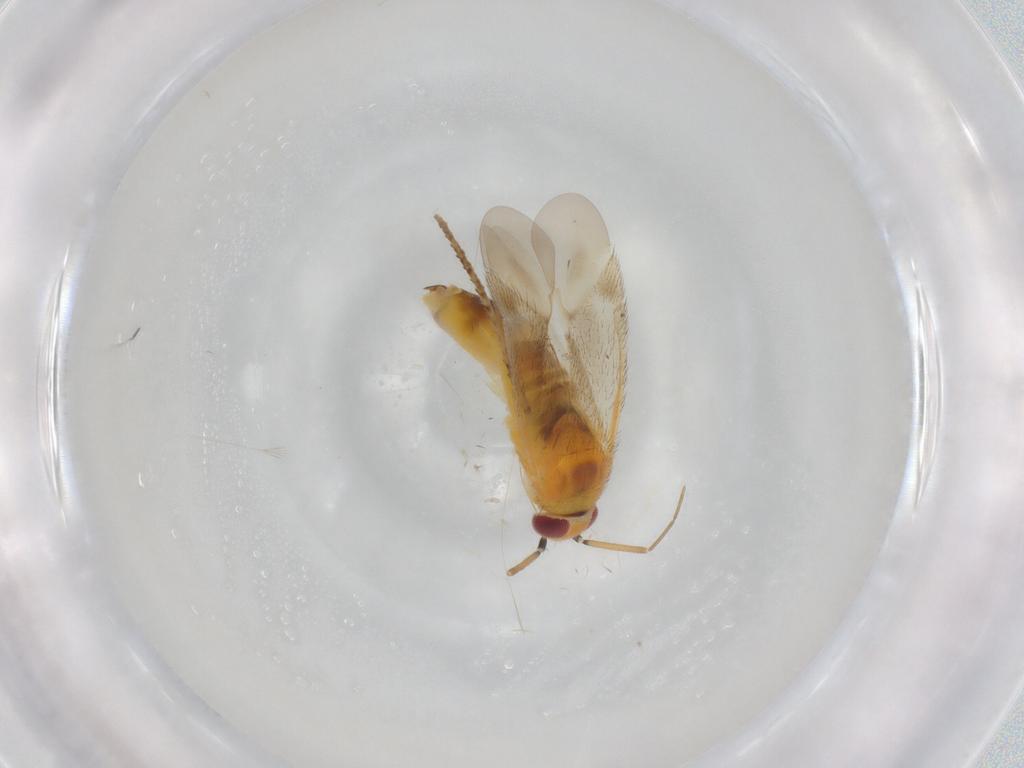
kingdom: Animalia
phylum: Arthropoda
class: Insecta
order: Hemiptera
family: Miridae
